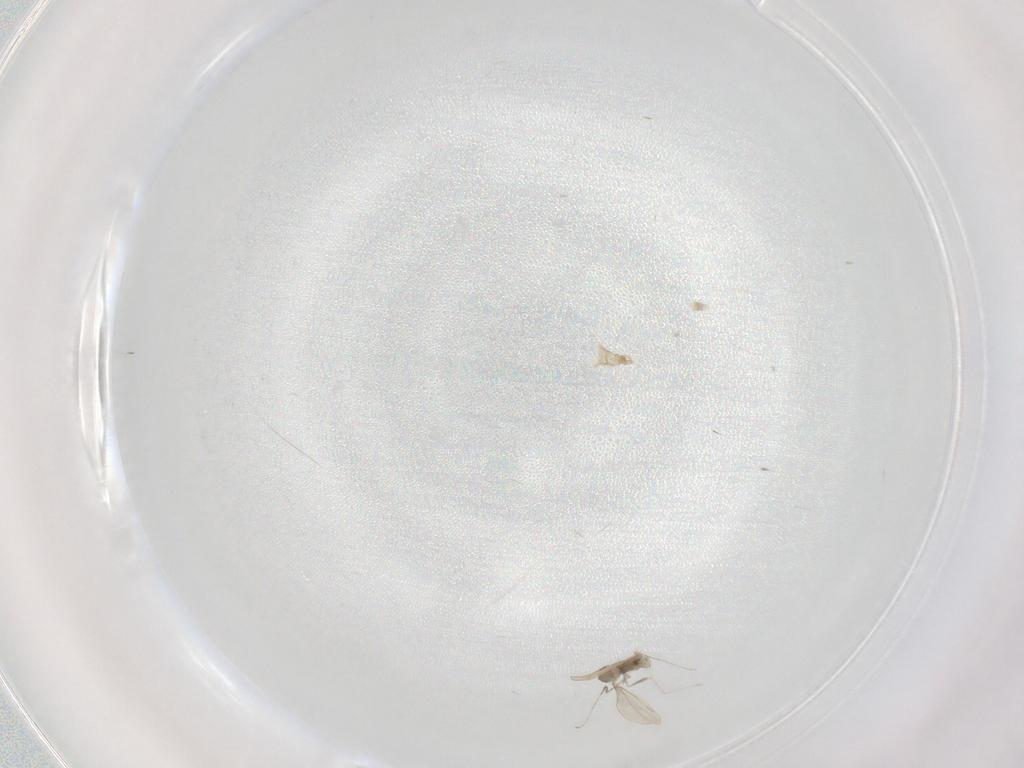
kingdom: Animalia
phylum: Arthropoda
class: Insecta
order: Diptera
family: Cecidomyiidae
